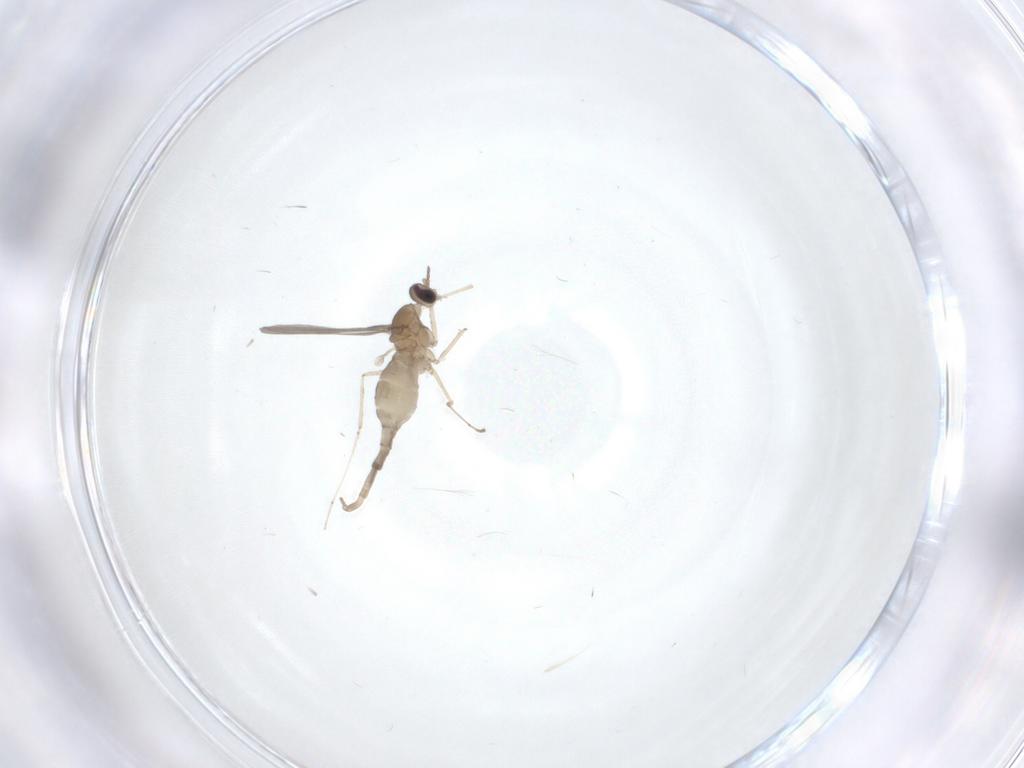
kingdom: Animalia
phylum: Arthropoda
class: Insecta
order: Diptera
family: Cecidomyiidae
